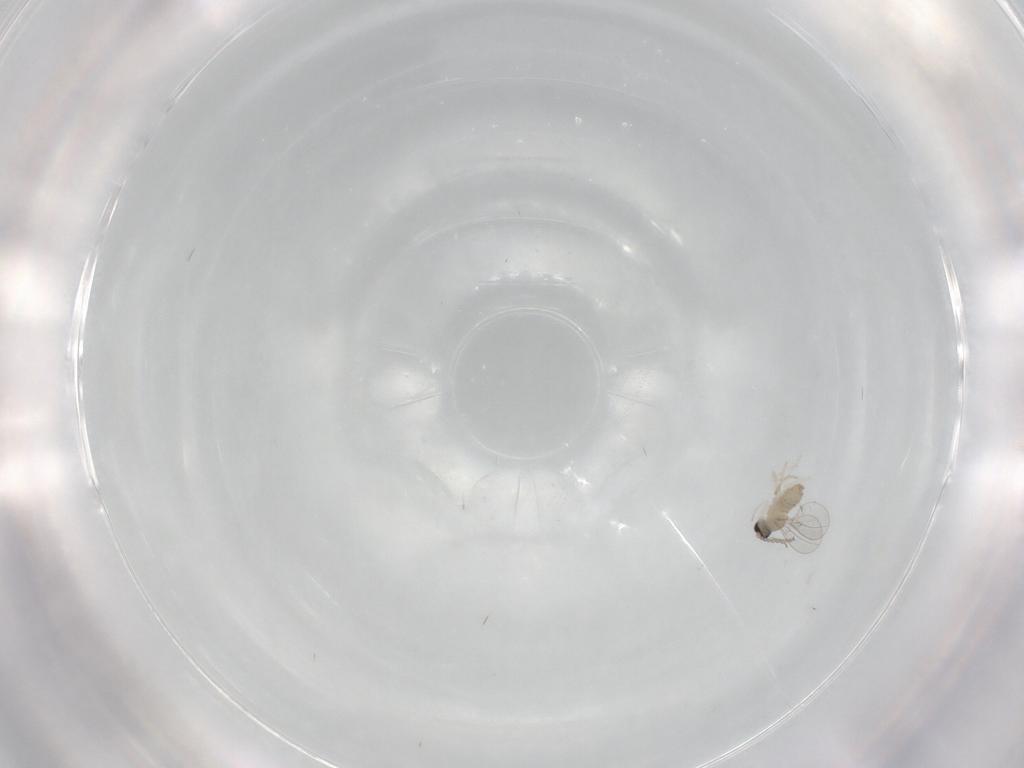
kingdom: Animalia
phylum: Arthropoda
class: Insecta
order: Diptera
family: Cecidomyiidae
